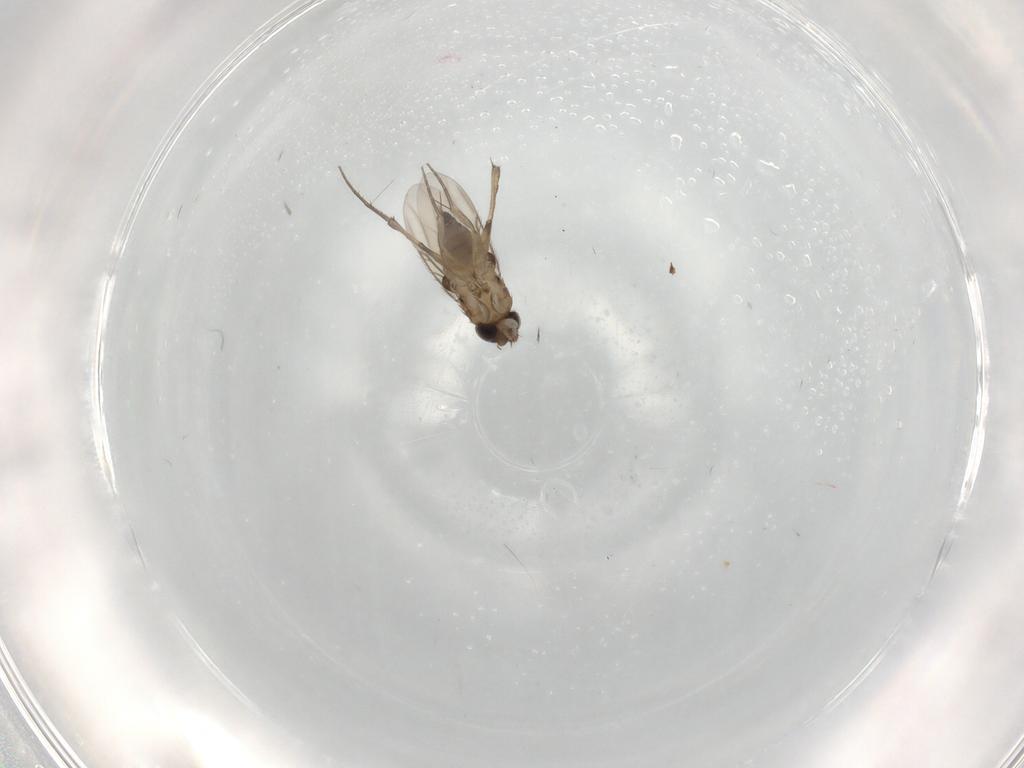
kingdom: Animalia
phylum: Arthropoda
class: Insecta
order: Diptera
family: Phoridae
